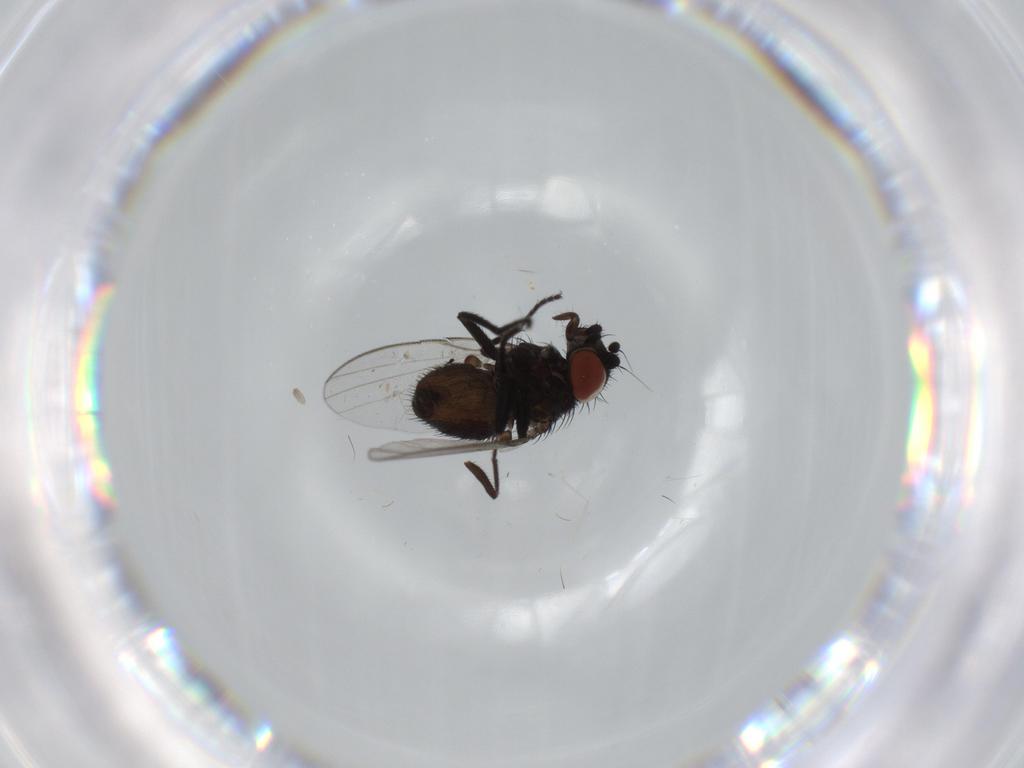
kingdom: Animalia
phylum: Arthropoda
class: Insecta
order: Diptera
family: Milichiidae
